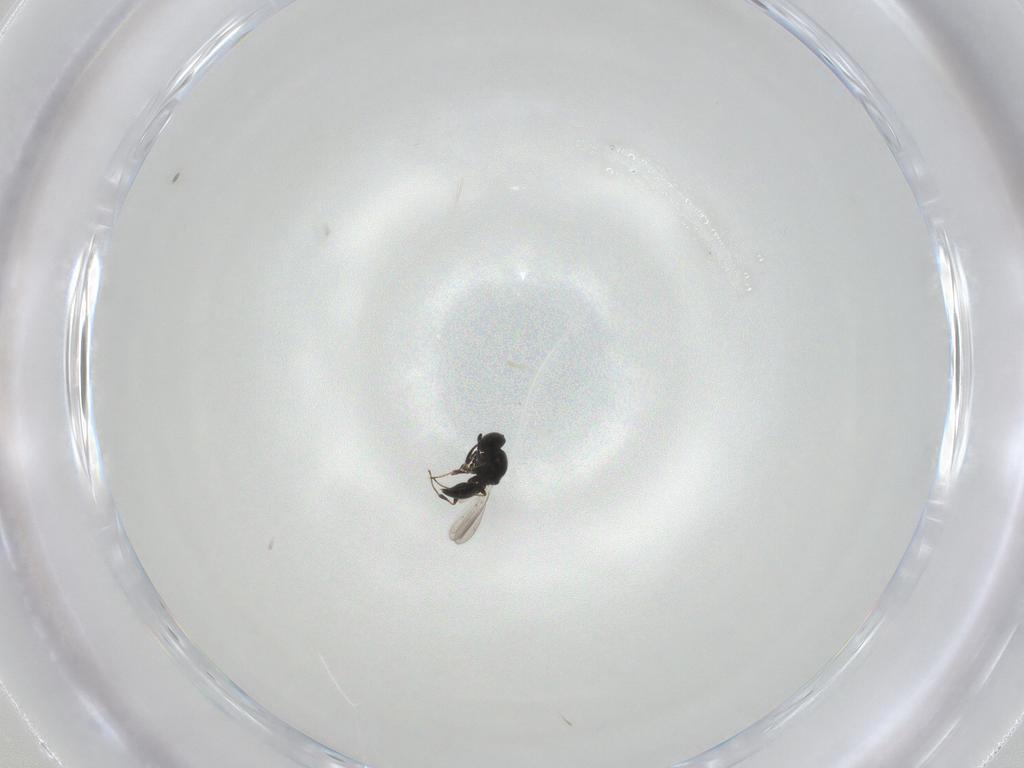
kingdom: Animalia
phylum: Arthropoda
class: Insecta
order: Hymenoptera
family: Platygastridae
